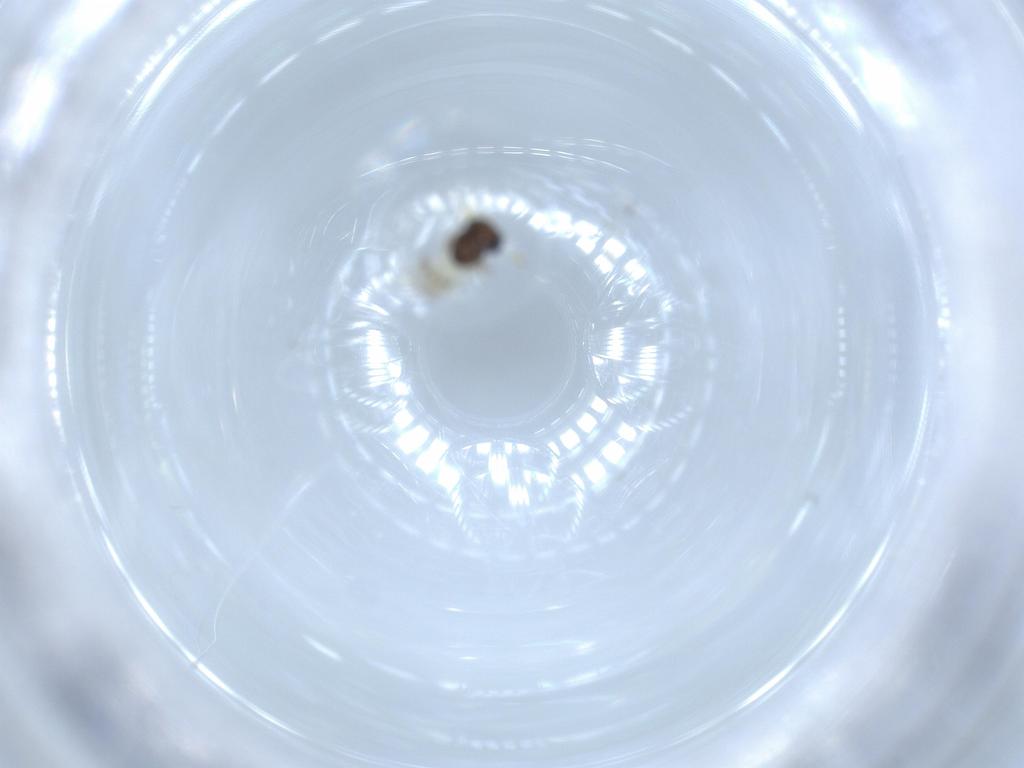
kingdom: Animalia
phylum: Arthropoda
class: Insecta
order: Hymenoptera
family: Scelionidae
